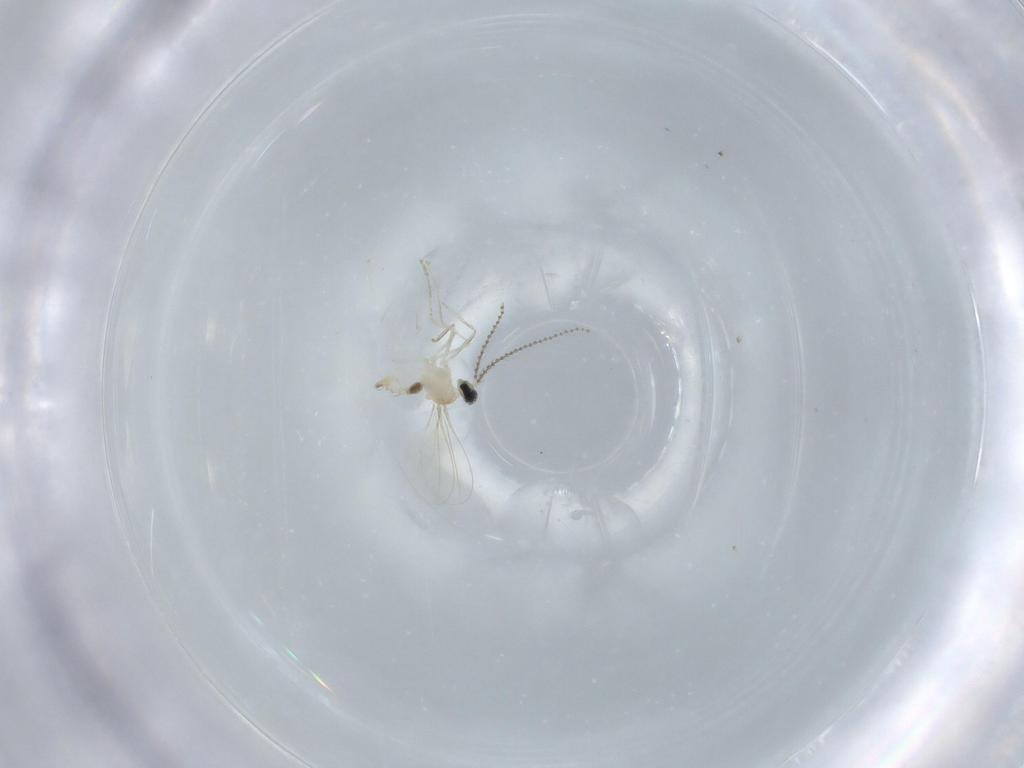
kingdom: Animalia
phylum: Arthropoda
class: Insecta
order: Diptera
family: Cecidomyiidae
